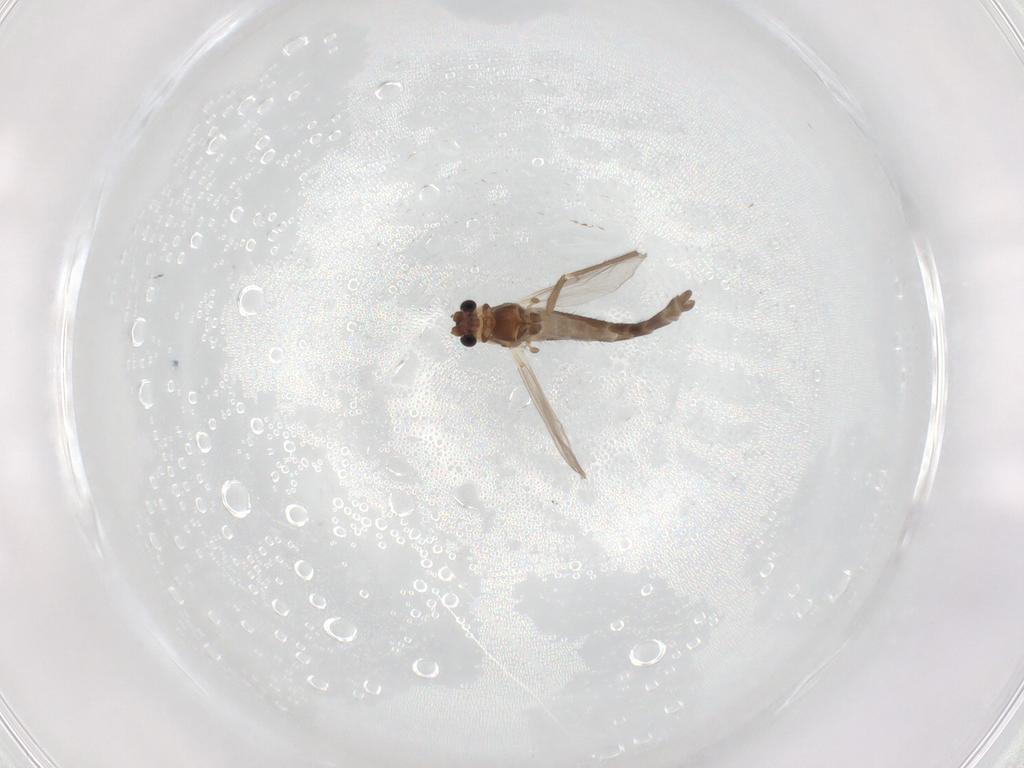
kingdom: Animalia
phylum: Arthropoda
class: Insecta
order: Diptera
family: Chironomidae
